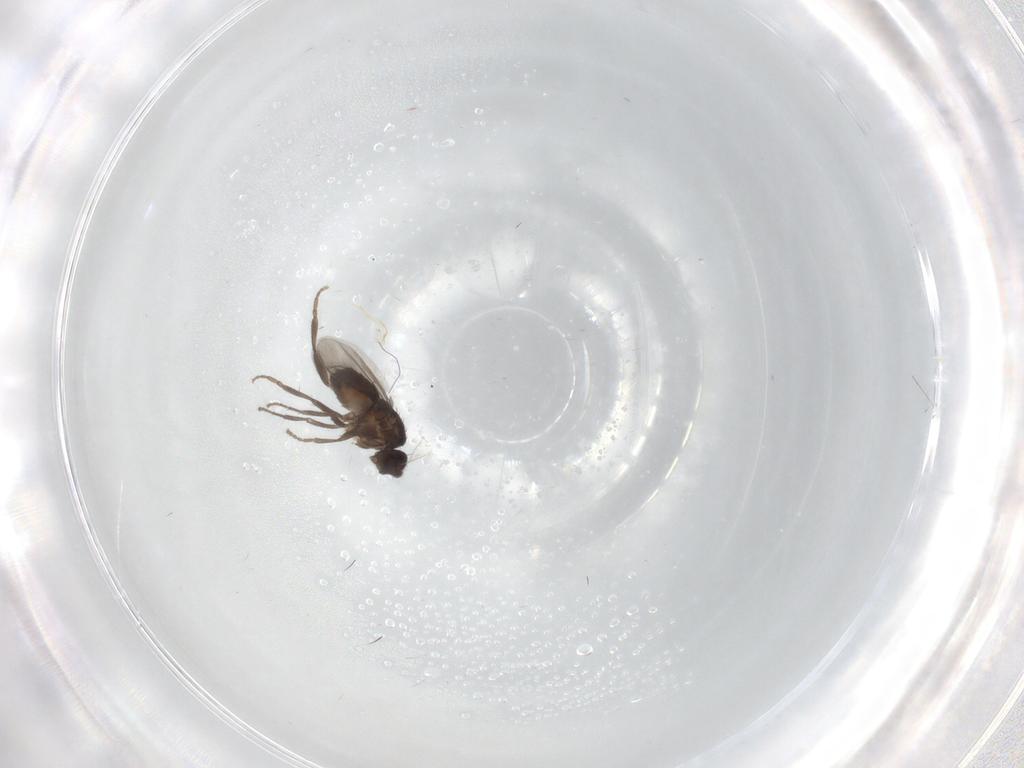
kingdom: Animalia
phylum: Arthropoda
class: Insecta
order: Diptera
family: Sphaeroceridae
